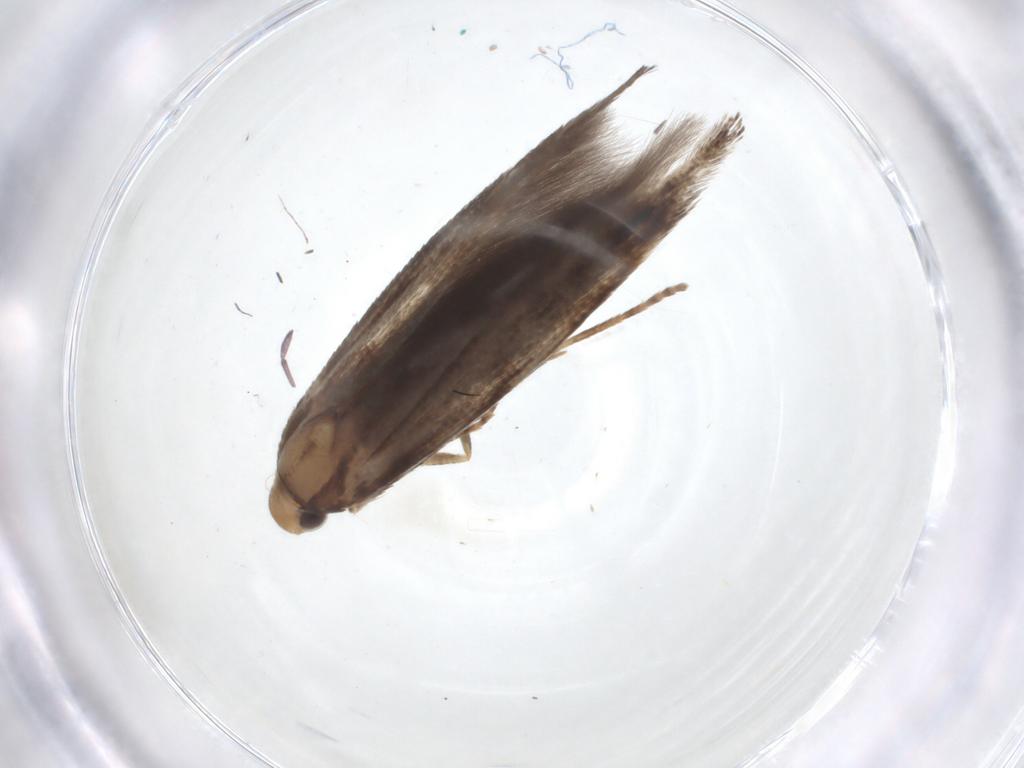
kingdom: Animalia
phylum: Arthropoda
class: Insecta
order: Lepidoptera
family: Cosmopterigidae
